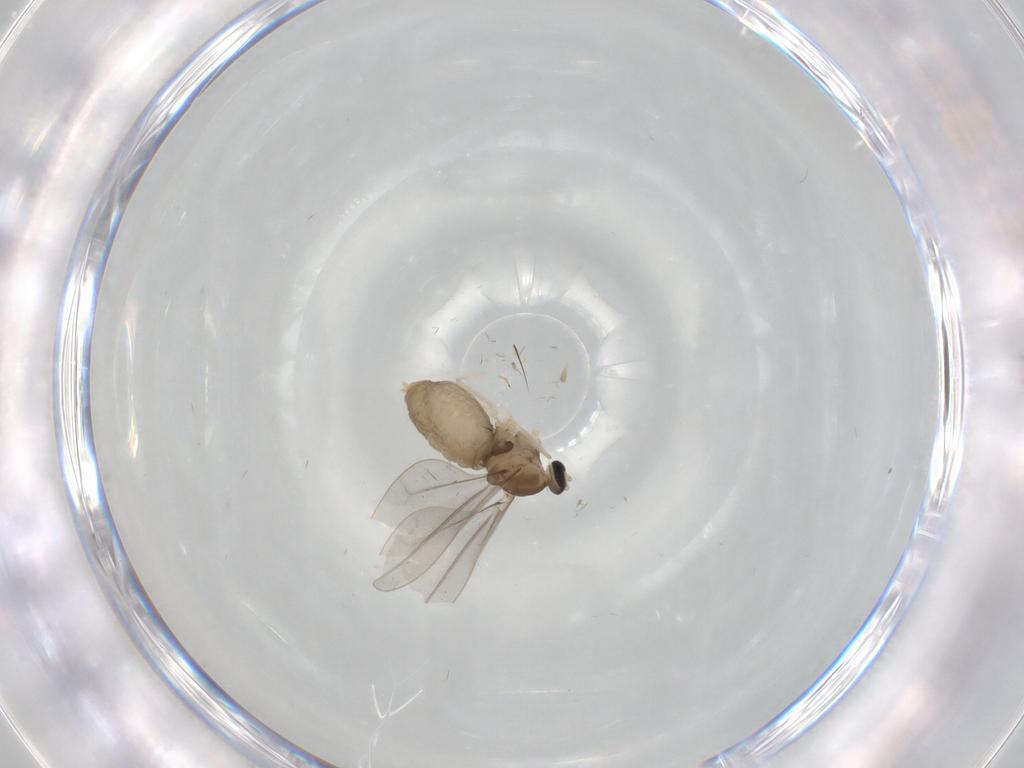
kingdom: Animalia
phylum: Arthropoda
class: Insecta
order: Diptera
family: Cecidomyiidae
